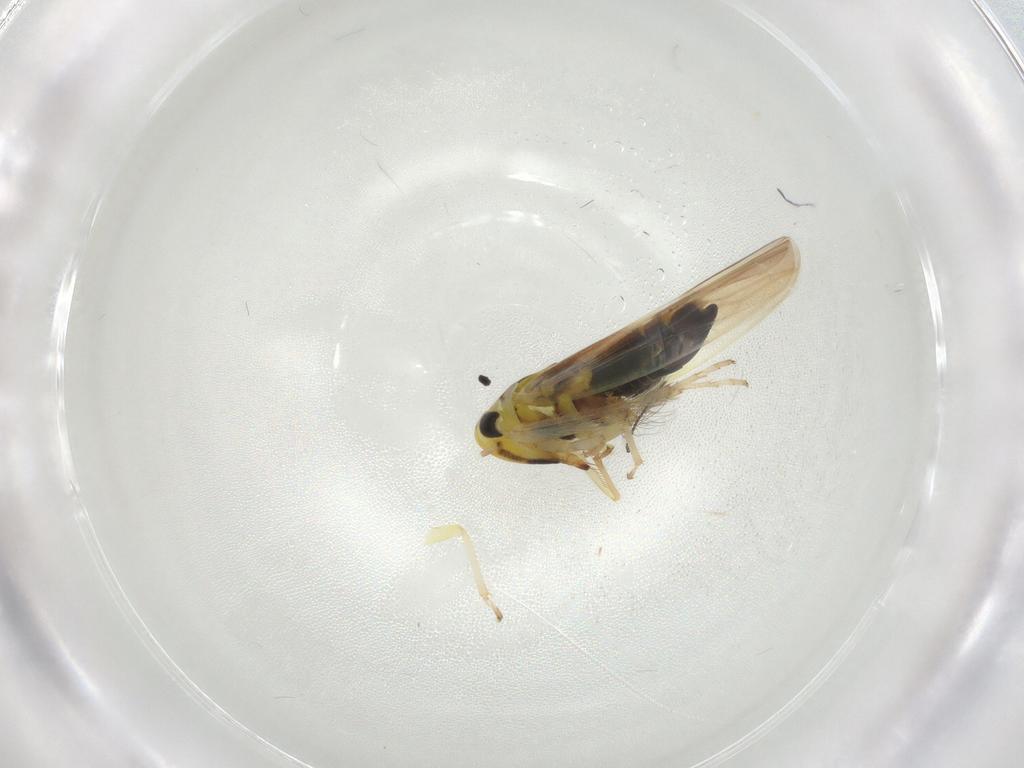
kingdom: Animalia
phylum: Arthropoda
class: Insecta
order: Hemiptera
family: Cicadellidae
